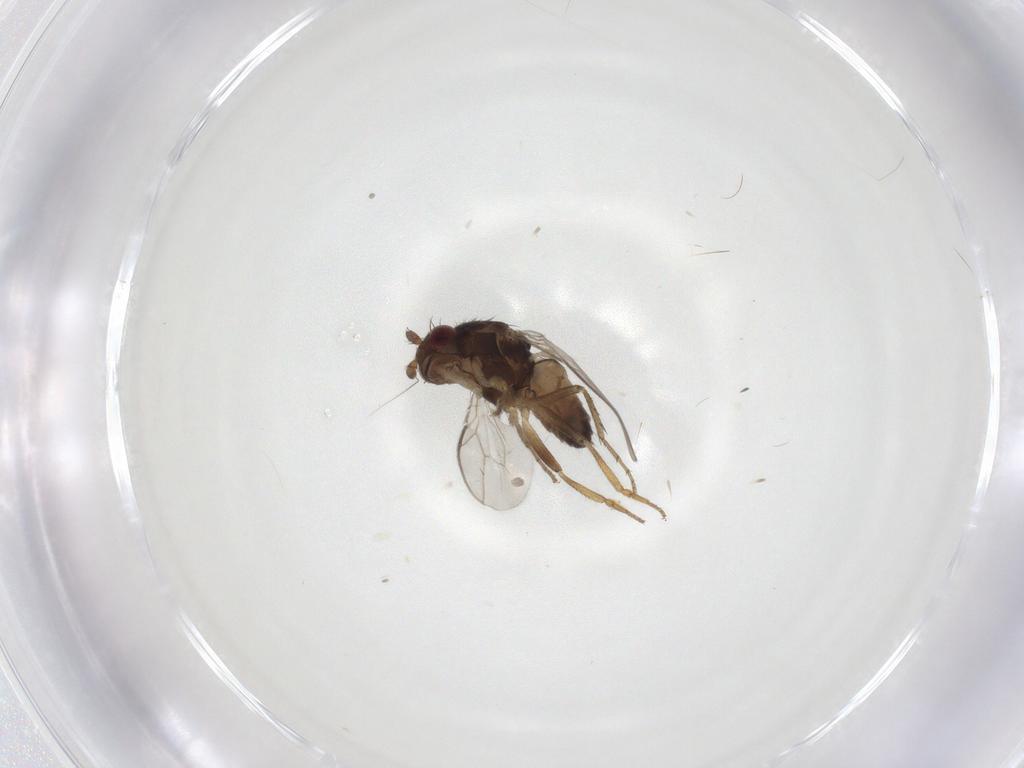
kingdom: Animalia
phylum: Arthropoda
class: Insecta
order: Diptera
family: Sphaeroceridae
